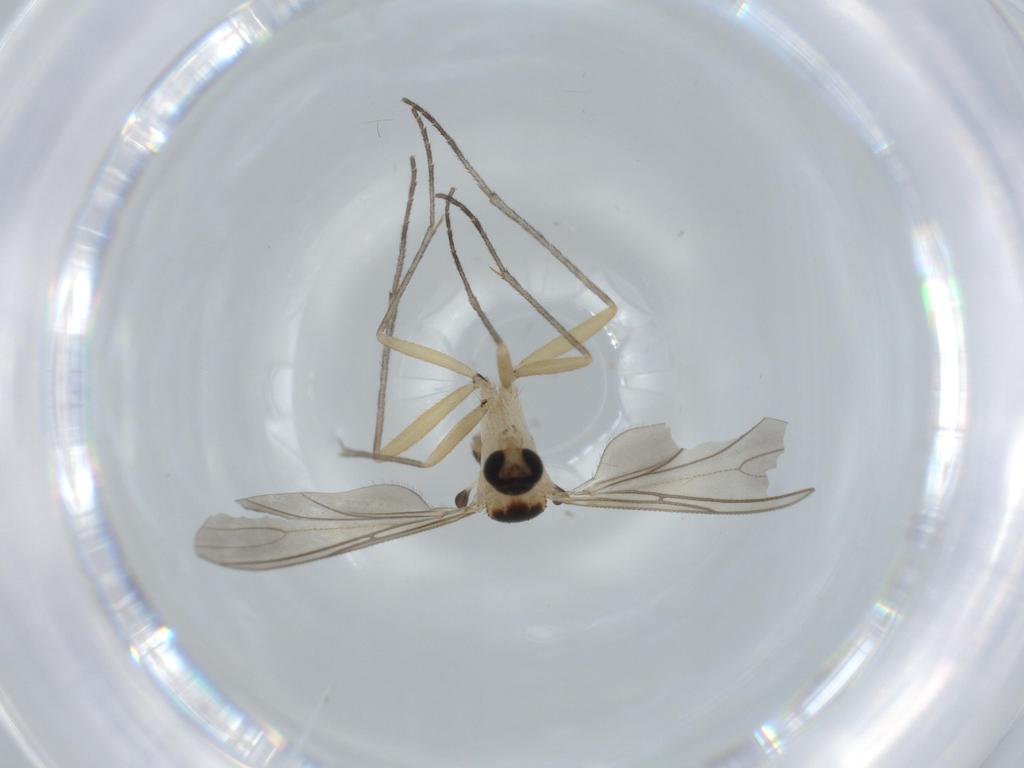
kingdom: Animalia
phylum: Arthropoda
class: Insecta
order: Diptera
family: Sciaridae
